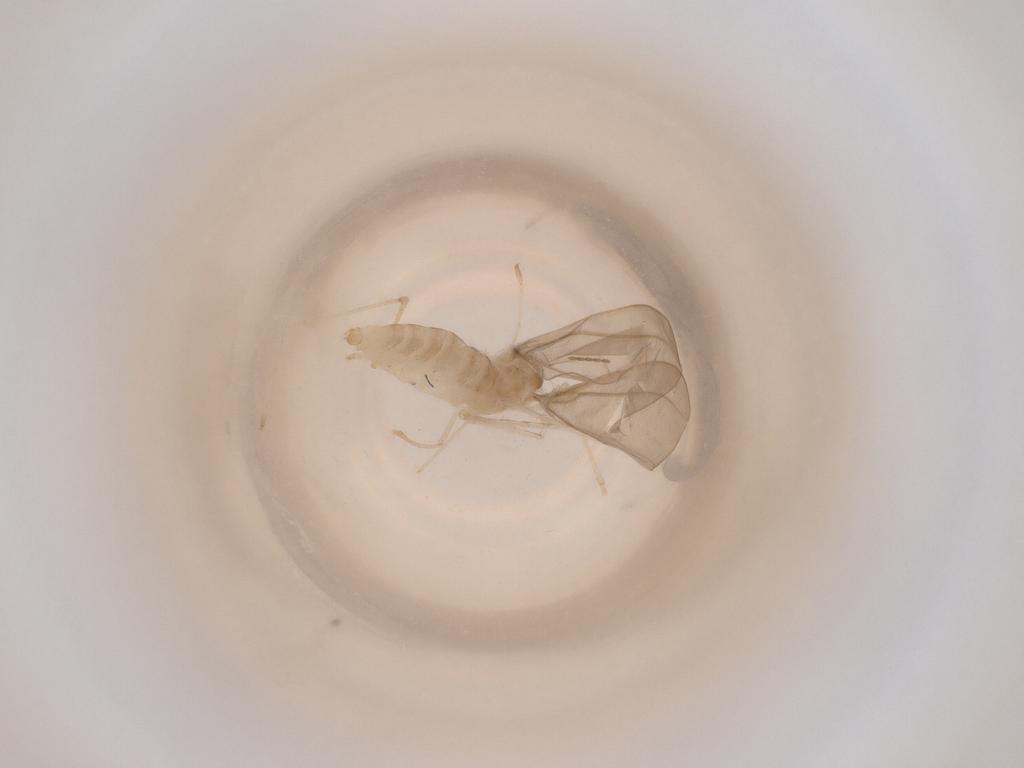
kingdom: Animalia
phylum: Arthropoda
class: Insecta
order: Diptera
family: Cecidomyiidae
